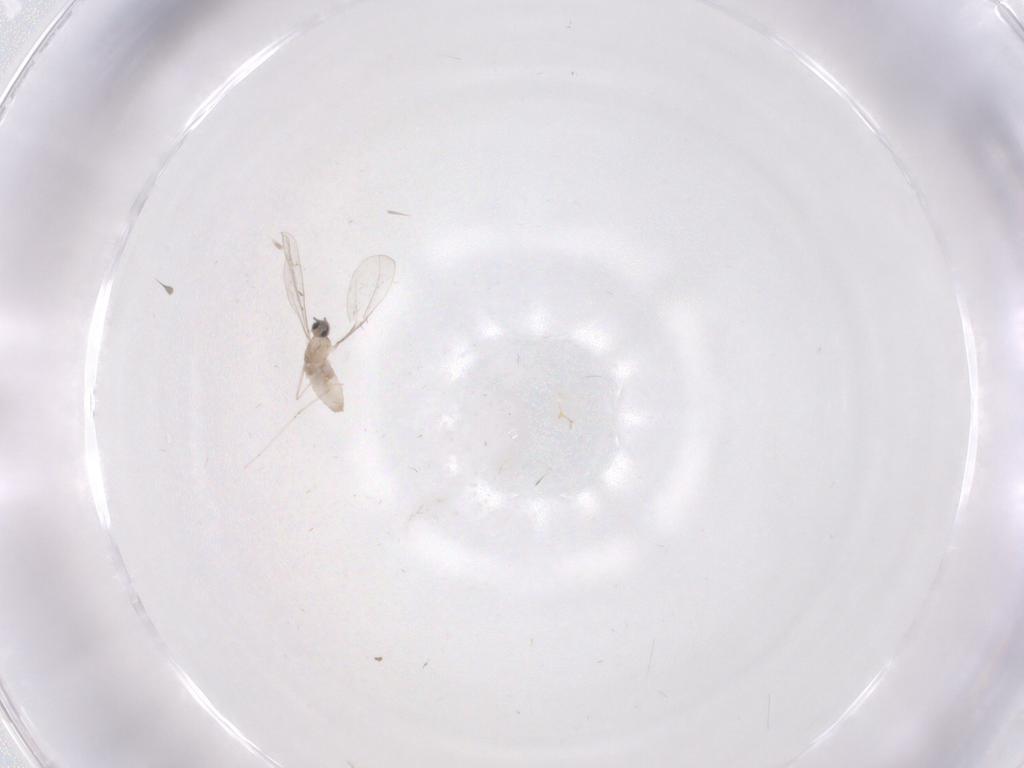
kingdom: Animalia
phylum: Arthropoda
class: Insecta
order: Diptera
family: Cecidomyiidae
